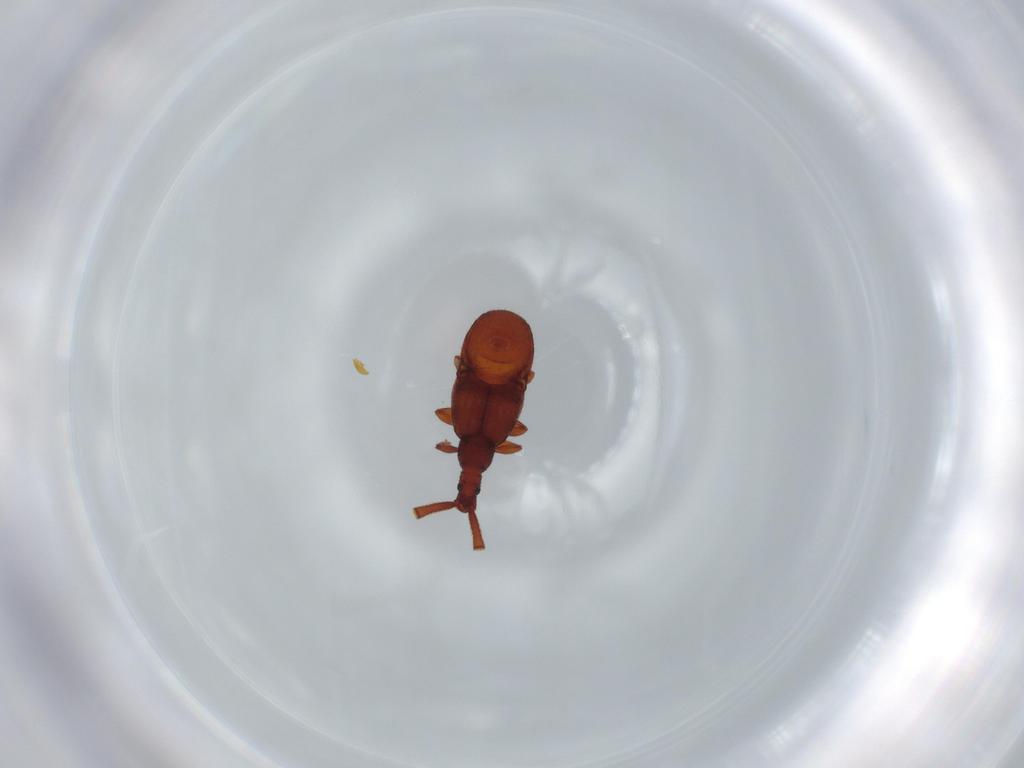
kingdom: Animalia
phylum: Arthropoda
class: Insecta
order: Coleoptera
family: Staphylinidae
